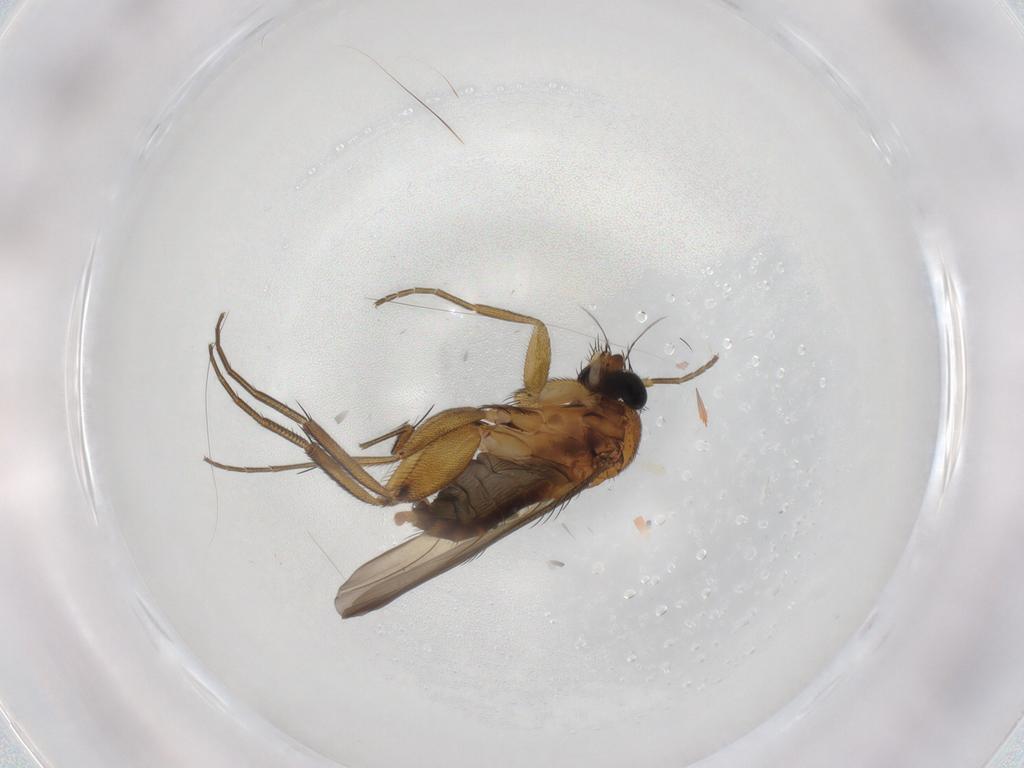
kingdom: Animalia
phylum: Arthropoda
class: Insecta
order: Diptera
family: Phoridae
